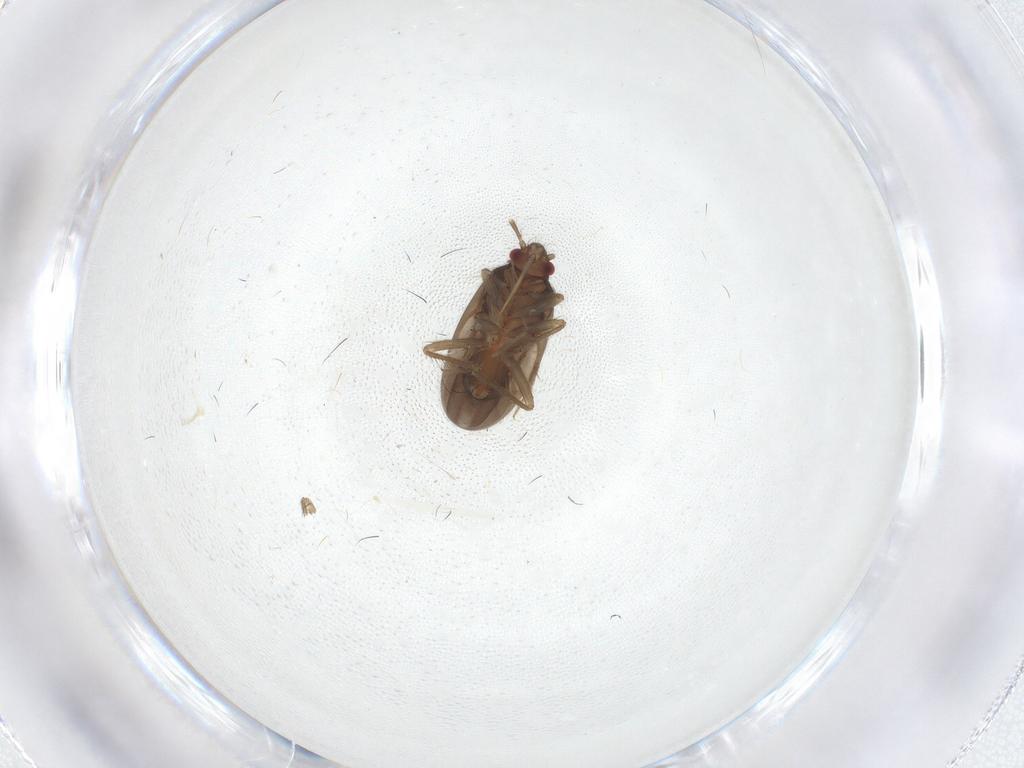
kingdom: Animalia
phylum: Arthropoda
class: Insecta
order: Hemiptera
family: Ceratocombidae
